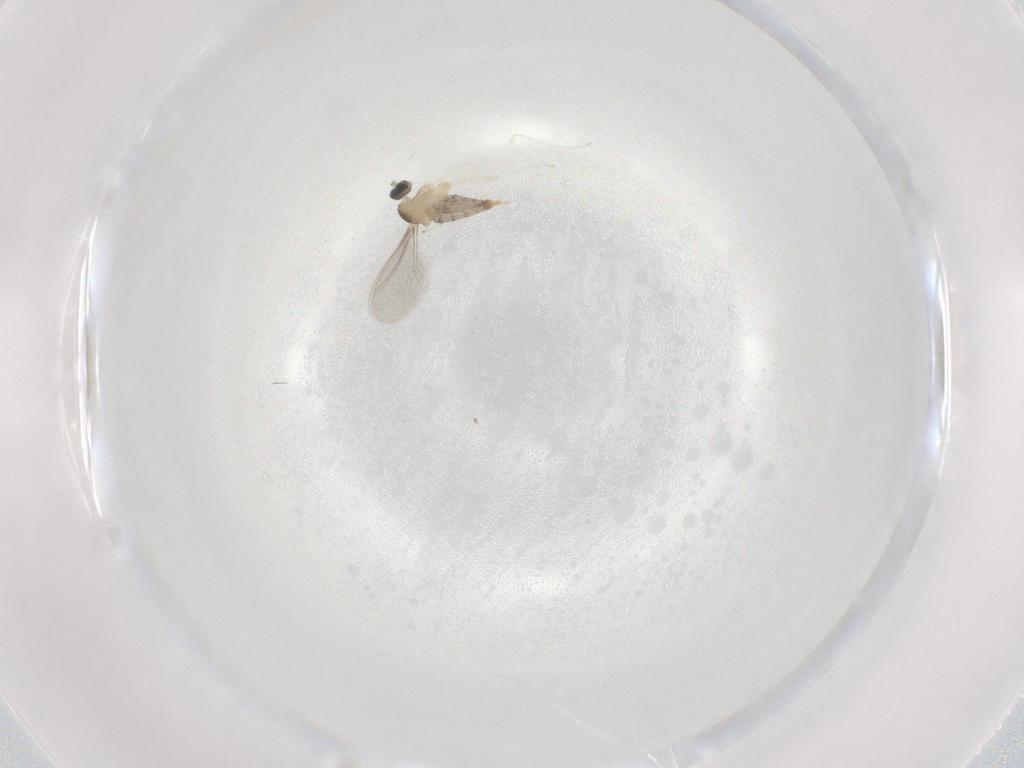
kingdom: Animalia
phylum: Arthropoda
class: Insecta
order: Diptera
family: Cecidomyiidae
